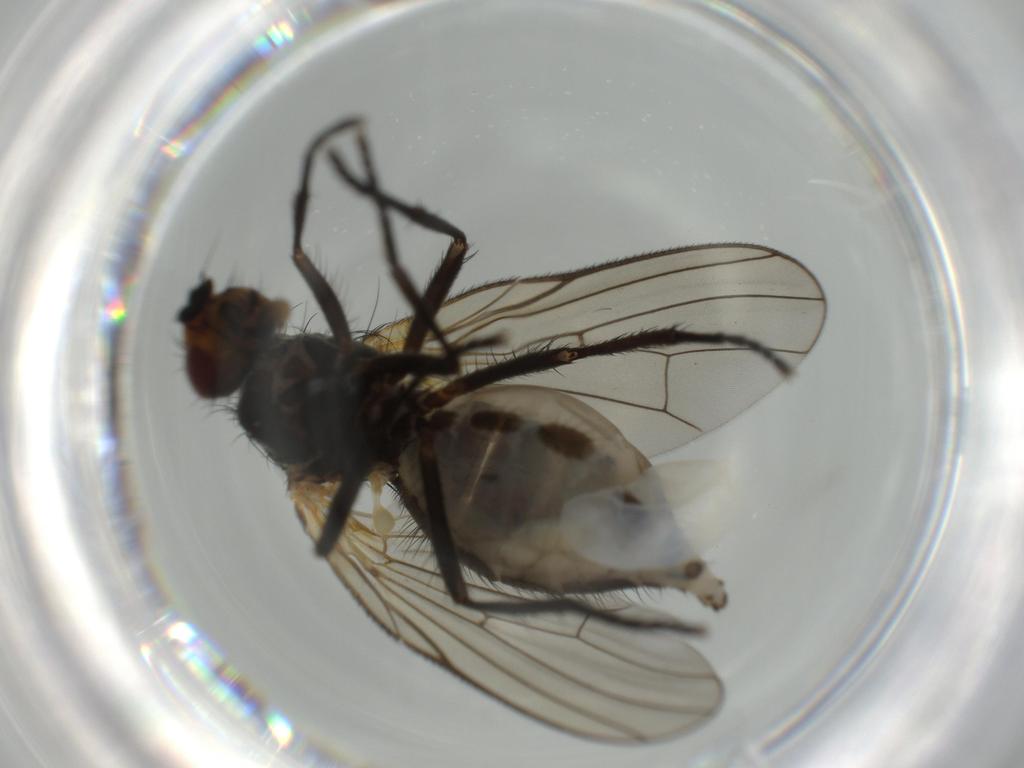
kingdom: Animalia
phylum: Arthropoda
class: Insecta
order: Diptera
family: Anthomyiidae
